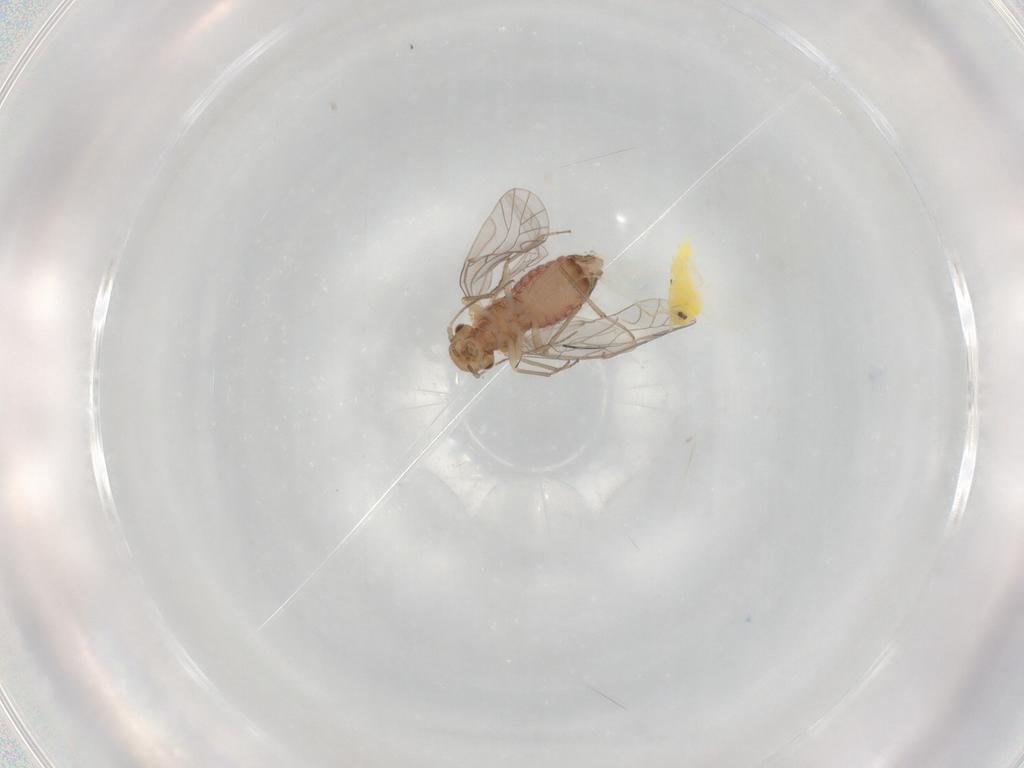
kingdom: Animalia
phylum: Arthropoda
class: Insecta
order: Psocodea
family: Lachesillidae
